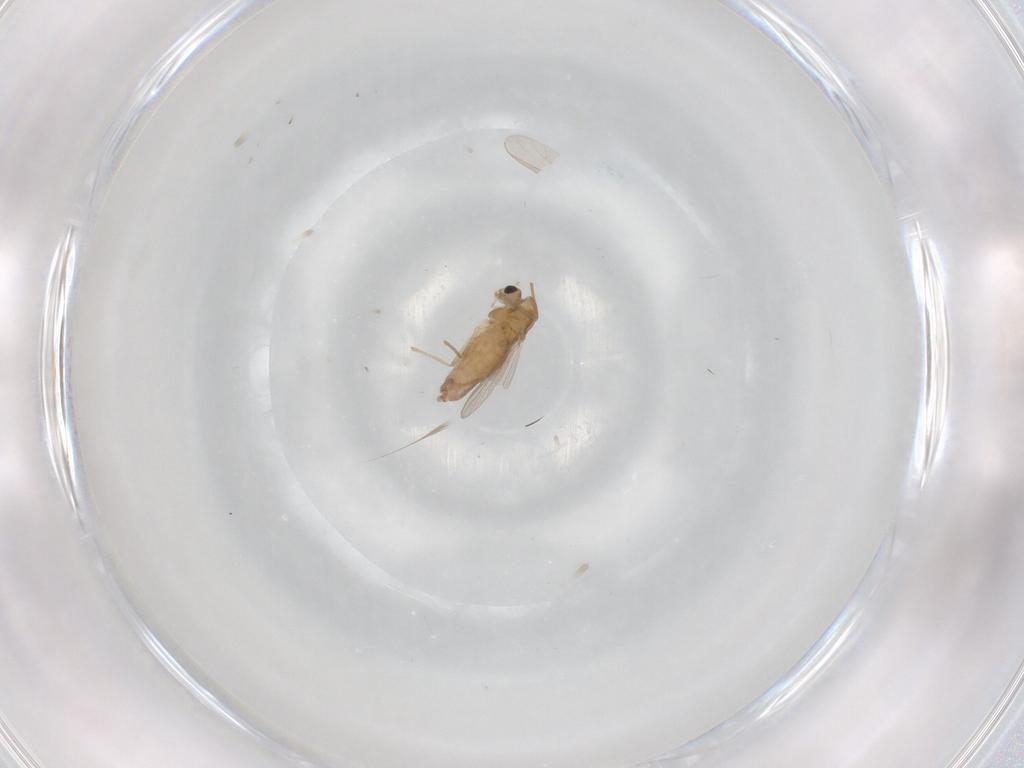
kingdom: Animalia
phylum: Arthropoda
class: Insecta
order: Diptera
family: Chironomidae
